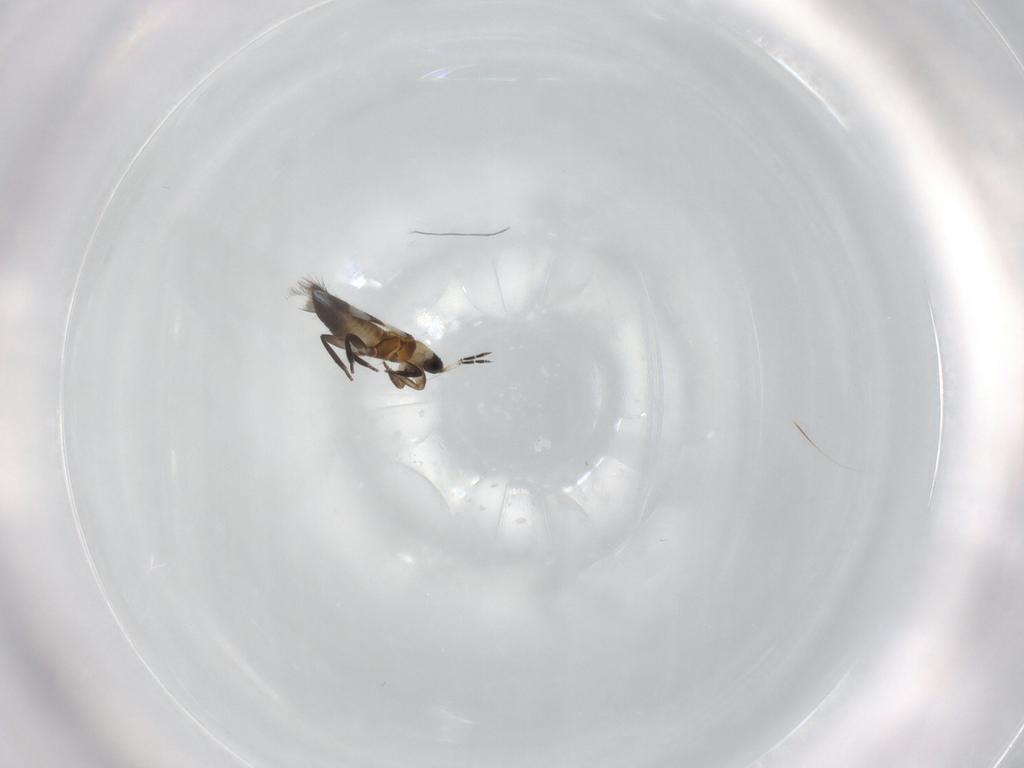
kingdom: Animalia
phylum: Arthropoda
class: Insecta
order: Thysanoptera
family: Aeolothripidae
